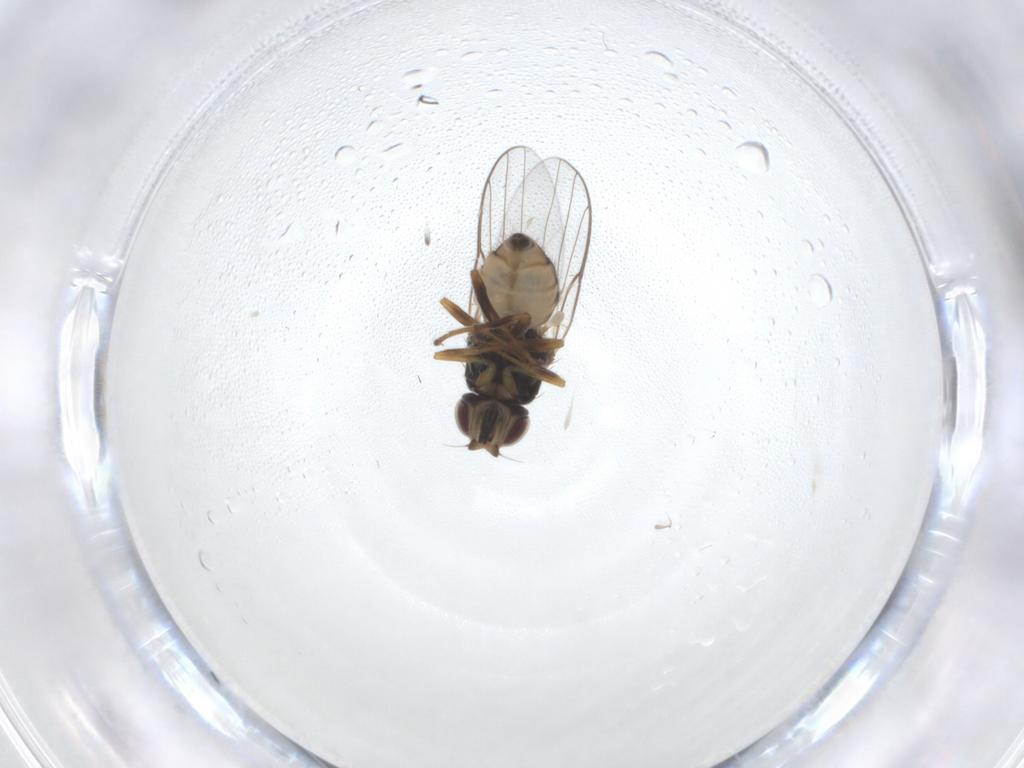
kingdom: Animalia
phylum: Arthropoda
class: Insecta
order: Diptera
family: Chloropidae
